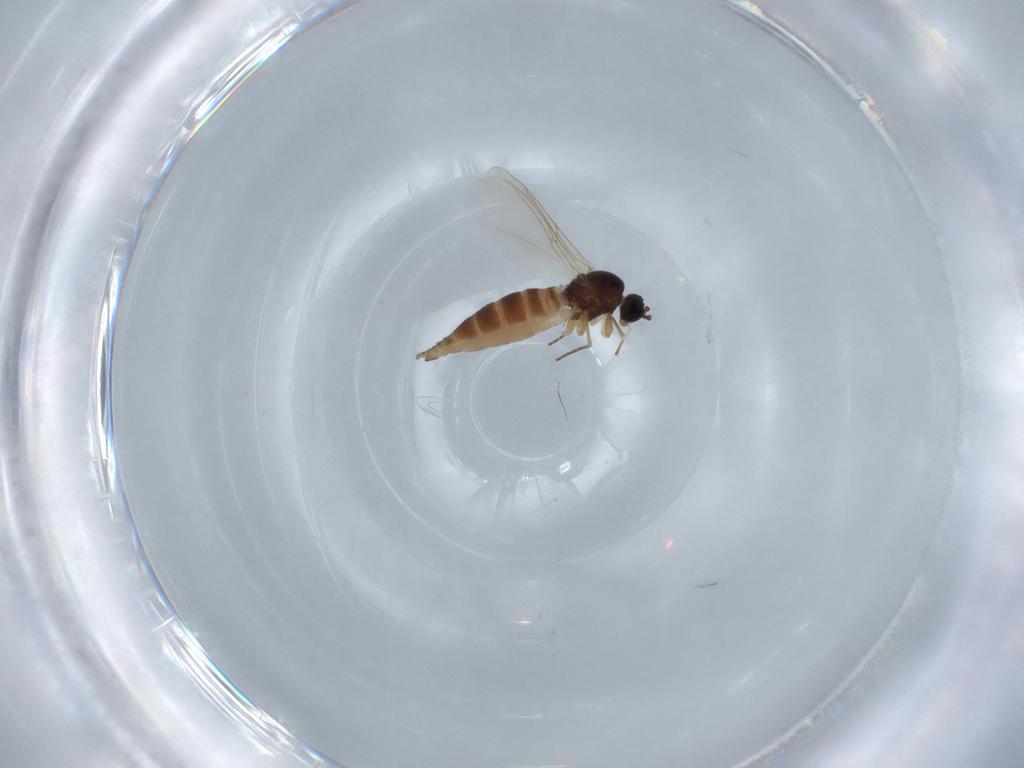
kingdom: Animalia
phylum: Arthropoda
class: Insecta
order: Diptera
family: Sciaridae
